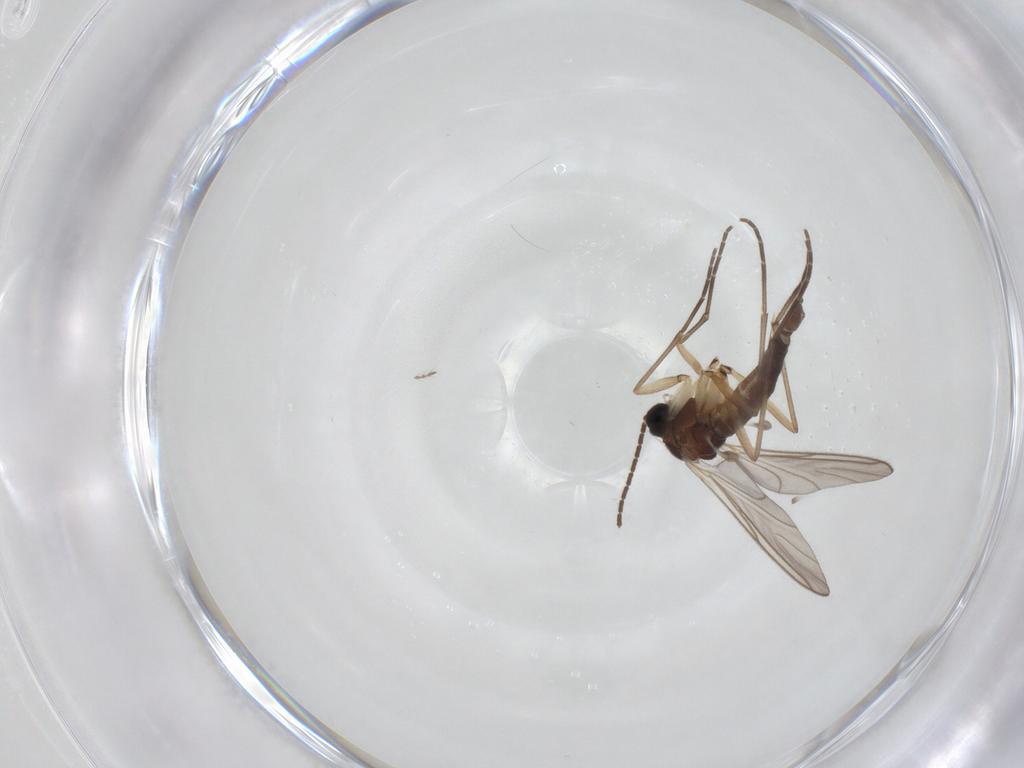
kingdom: Animalia
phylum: Arthropoda
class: Insecta
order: Diptera
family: Sciaridae
